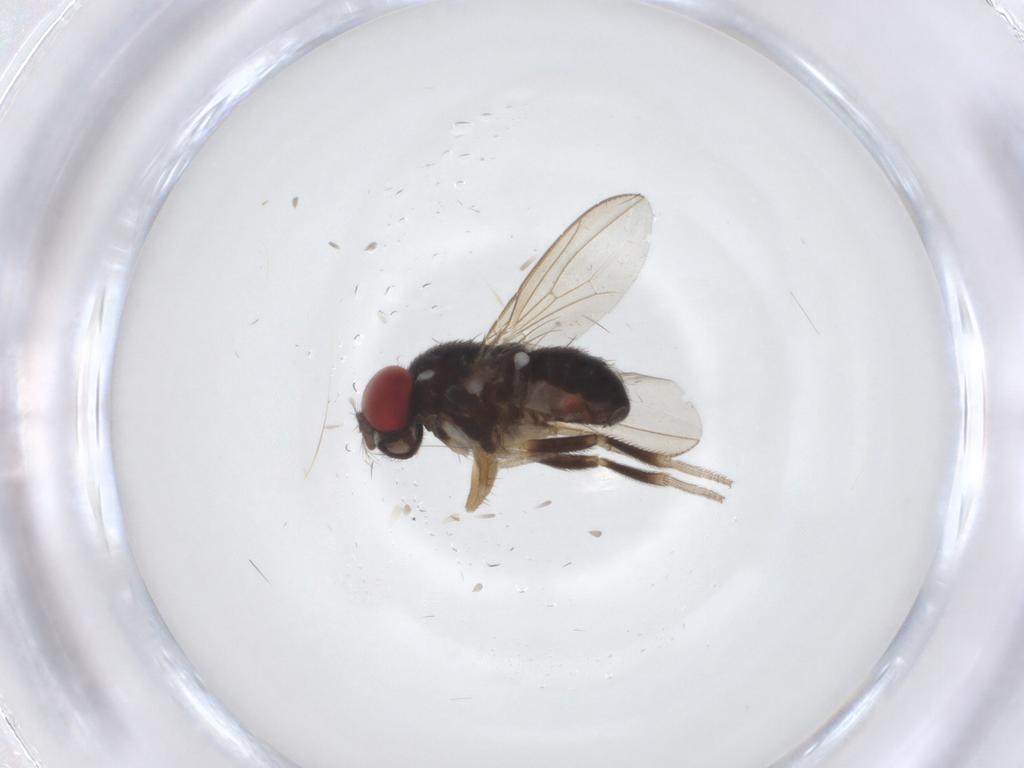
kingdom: Animalia
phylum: Arthropoda
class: Insecta
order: Diptera
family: Drosophilidae
